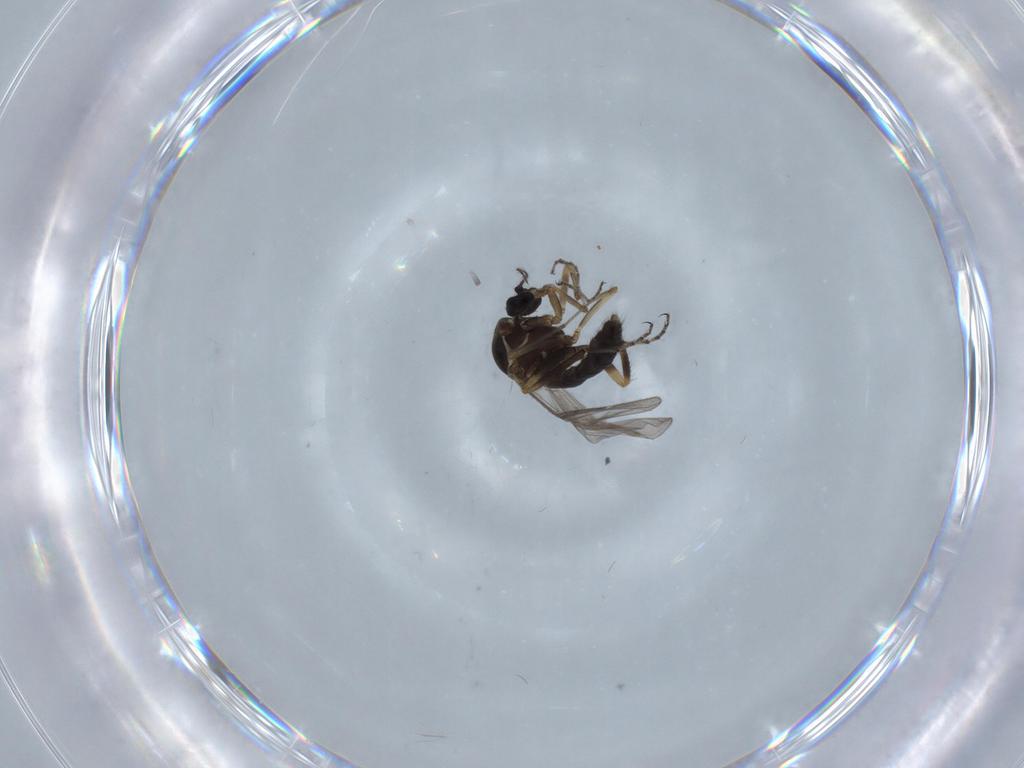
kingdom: Animalia
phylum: Arthropoda
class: Insecta
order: Diptera
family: Ceratopogonidae
